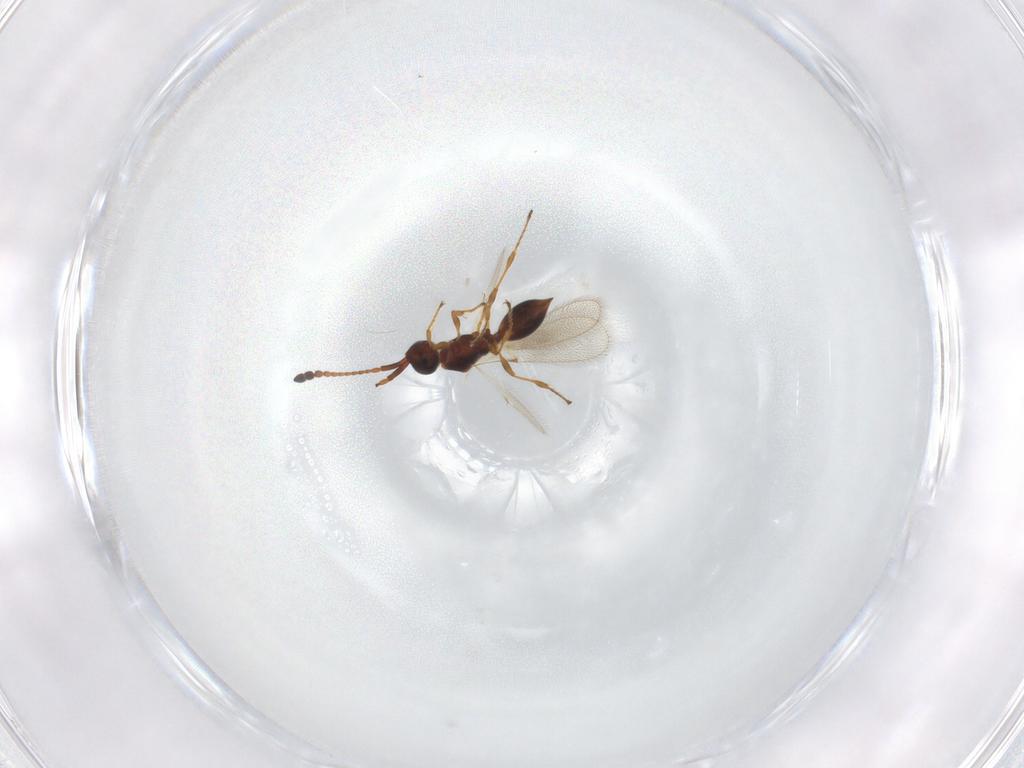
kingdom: Animalia
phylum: Arthropoda
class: Insecta
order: Hymenoptera
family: Diapriidae
